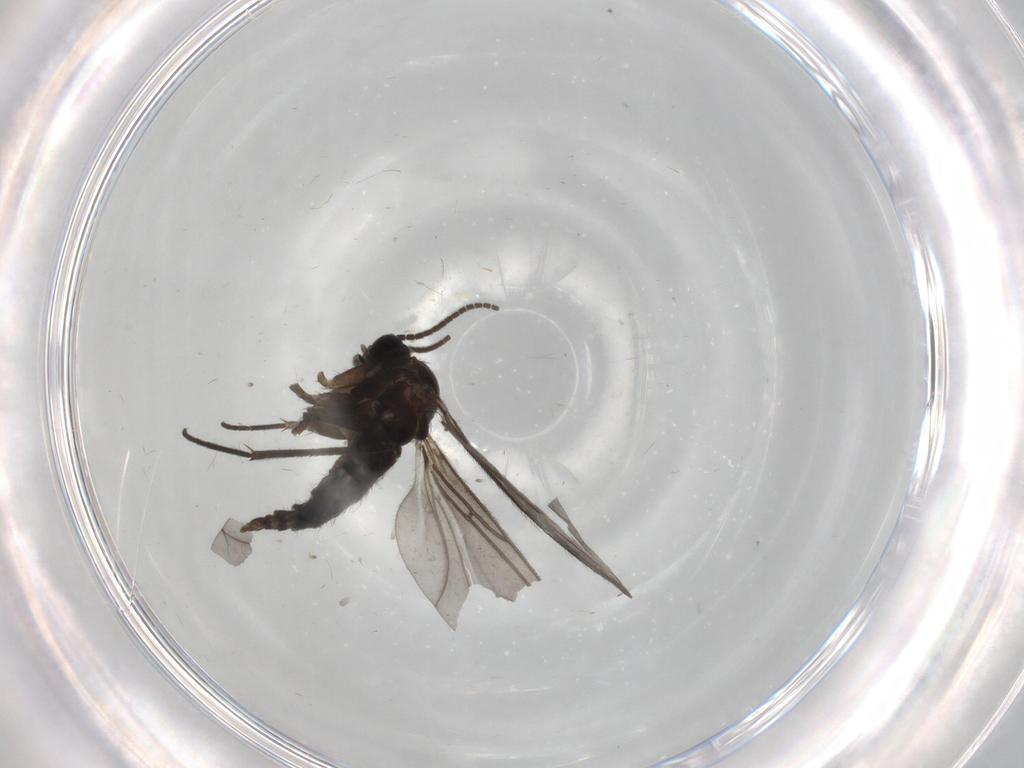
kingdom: Animalia
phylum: Arthropoda
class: Insecta
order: Diptera
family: Sciaridae
